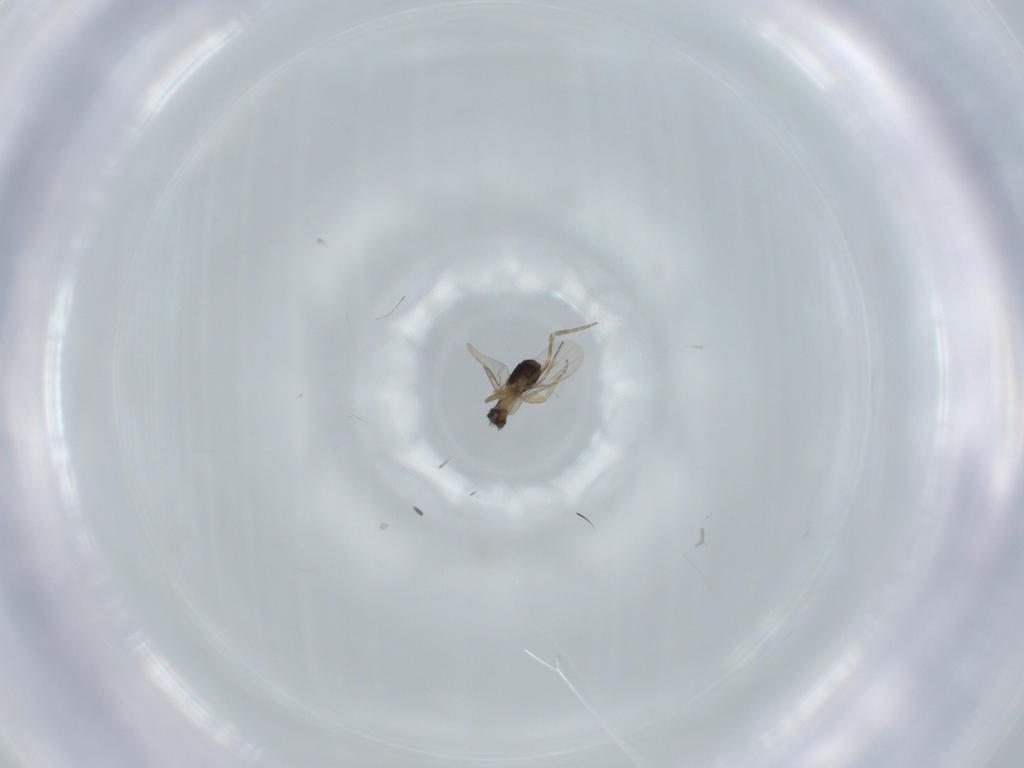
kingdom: Animalia
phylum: Arthropoda
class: Insecta
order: Diptera
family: Phoridae
